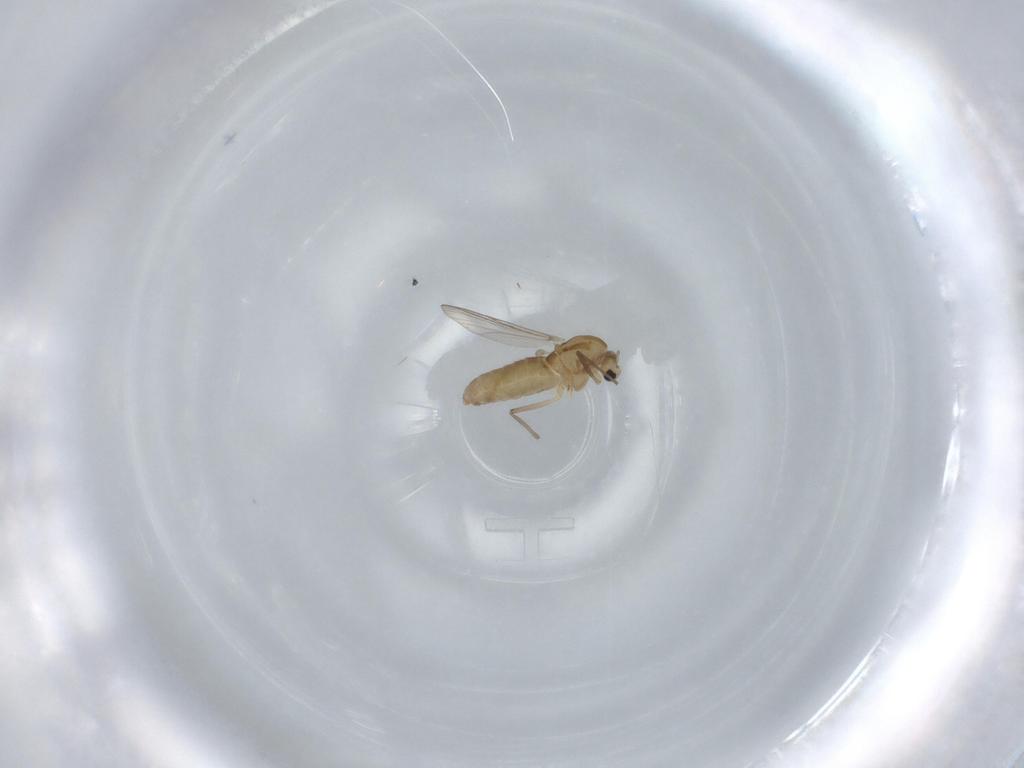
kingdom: Animalia
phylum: Arthropoda
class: Insecta
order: Diptera
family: Chironomidae
